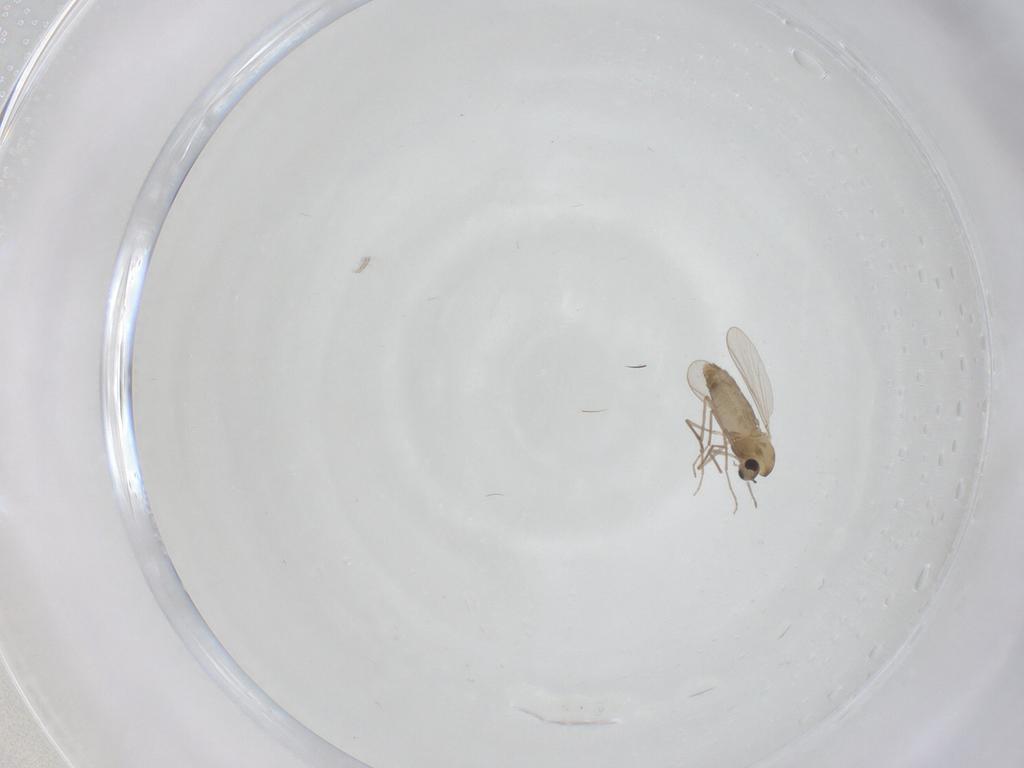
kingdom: Animalia
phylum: Arthropoda
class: Insecta
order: Diptera
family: Chironomidae
